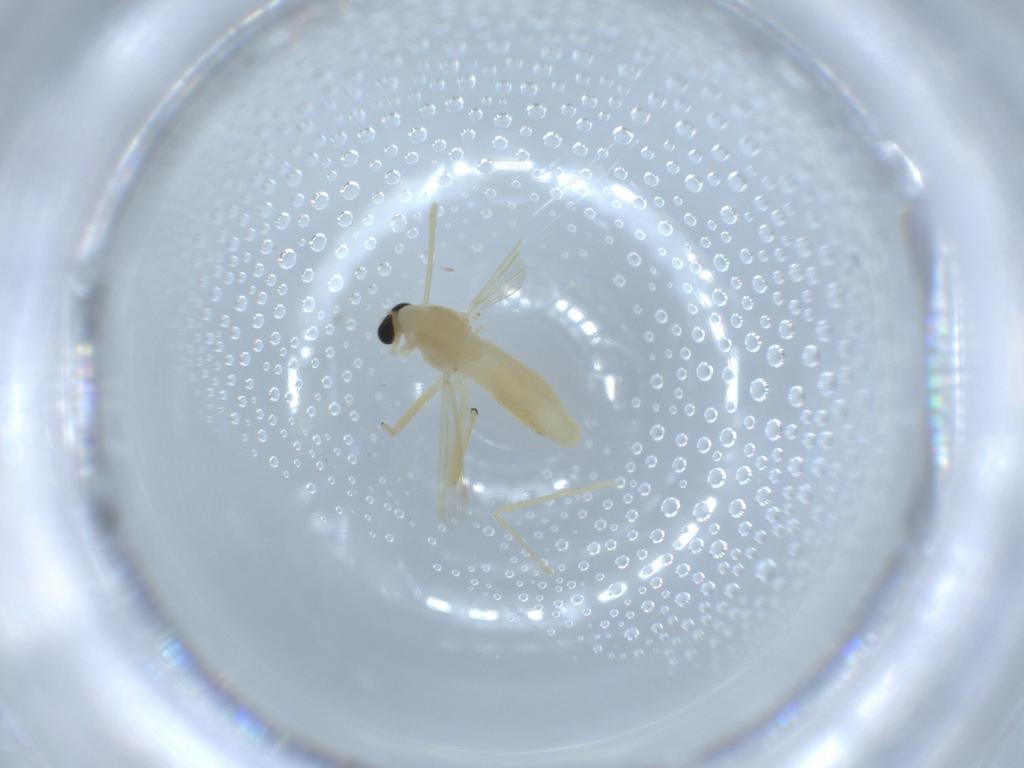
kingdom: Animalia
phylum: Arthropoda
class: Insecta
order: Diptera
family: Chironomidae
